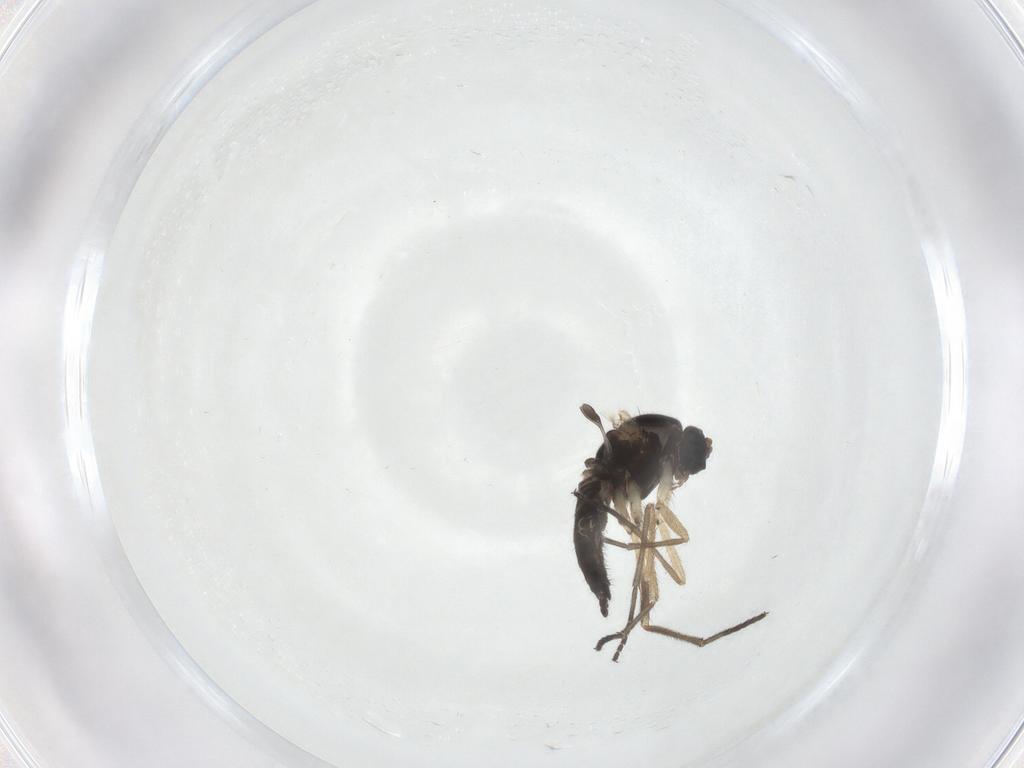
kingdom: Animalia
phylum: Arthropoda
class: Insecta
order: Diptera
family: Sciaridae
